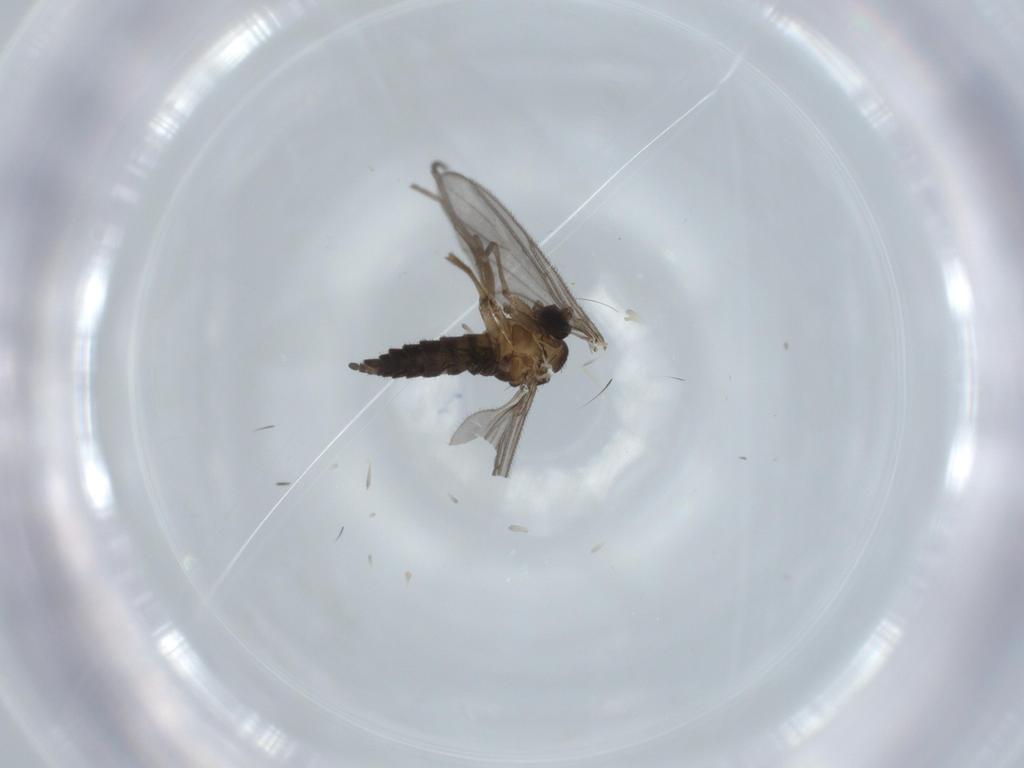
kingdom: Animalia
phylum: Arthropoda
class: Insecta
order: Diptera
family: Sciaridae
